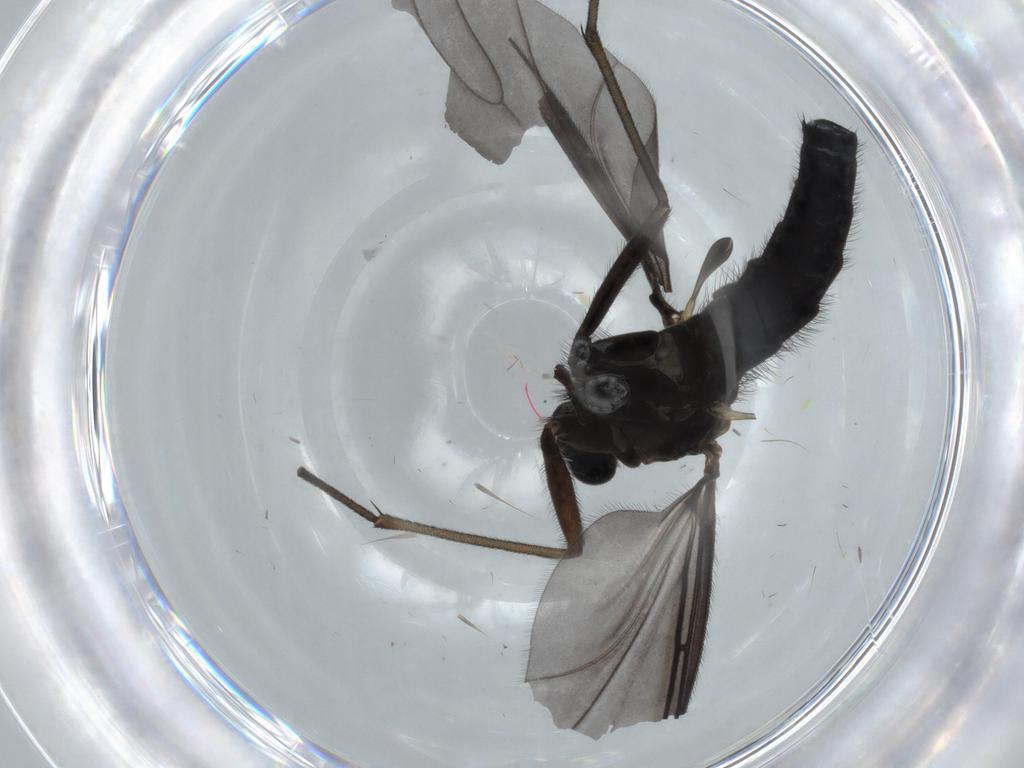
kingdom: Animalia
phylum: Arthropoda
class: Insecta
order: Diptera
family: Sciaridae
